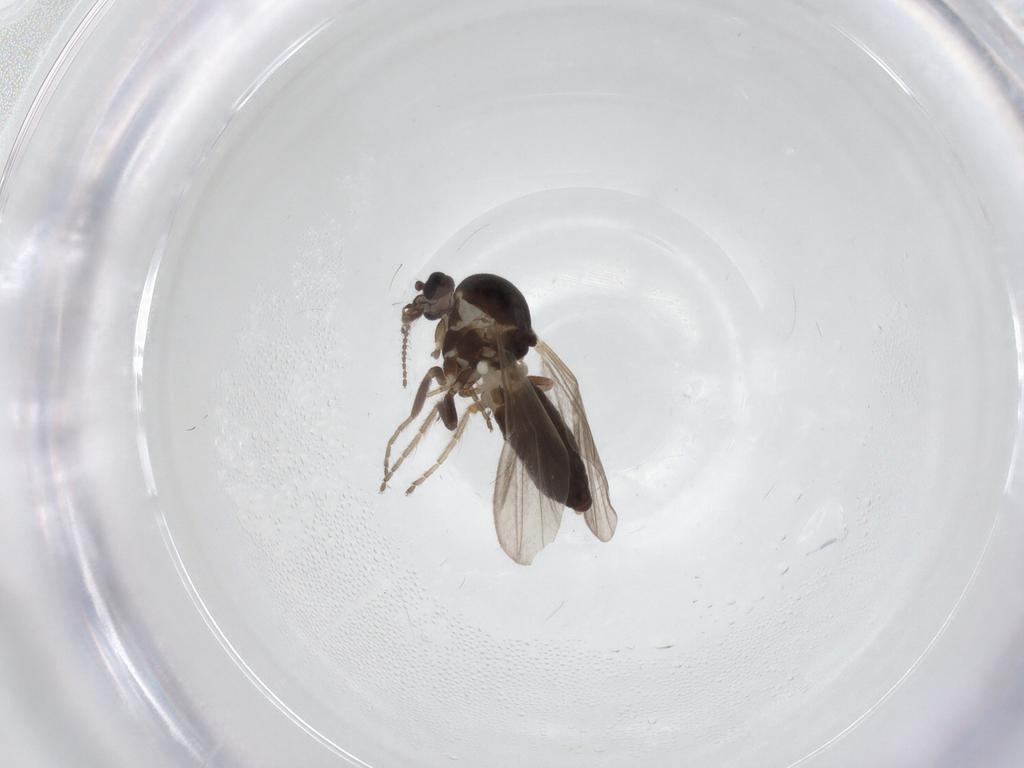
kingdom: Animalia
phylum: Arthropoda
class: Insecta
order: Diptera
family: Ceratopogonidae
